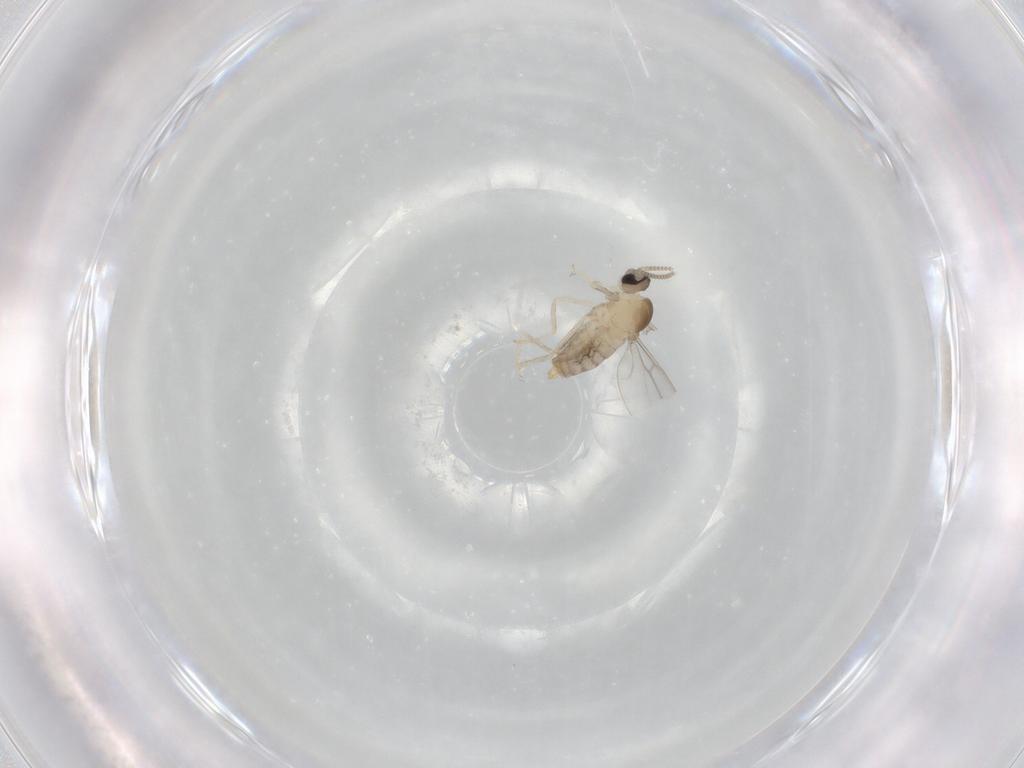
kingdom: Animalia
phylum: Arthropoda
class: Insecta
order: Diptera
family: Cecidomyiidae
